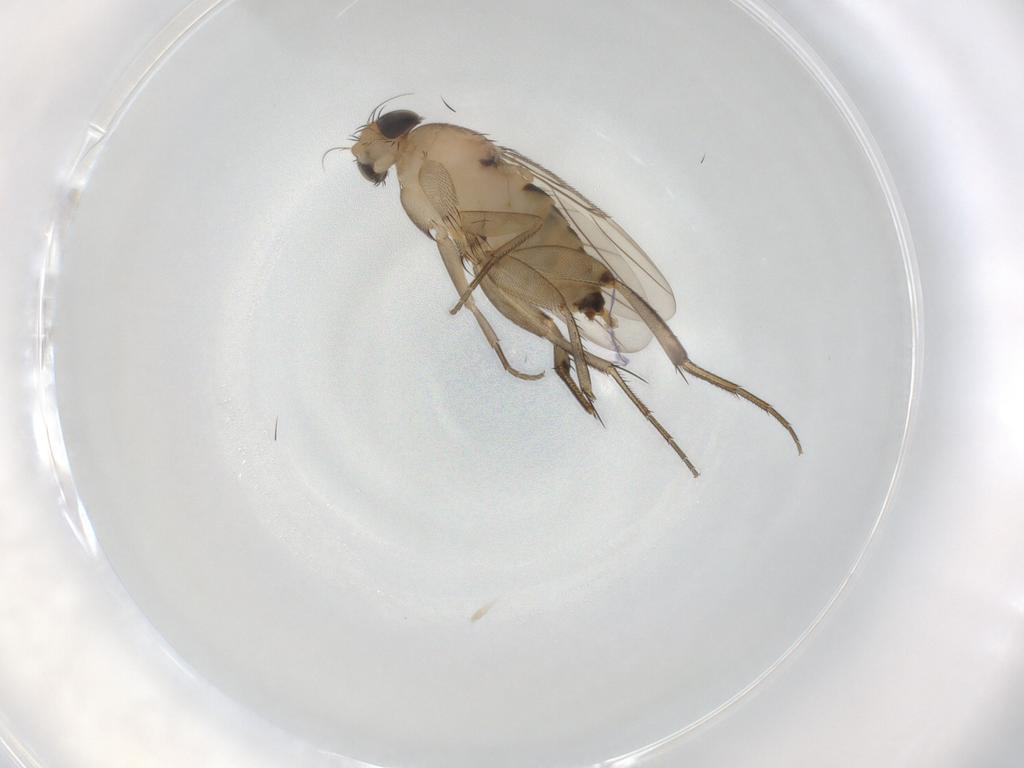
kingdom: Animalia
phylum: Arthropoda
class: Insecta
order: Diptera
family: Phoridae
